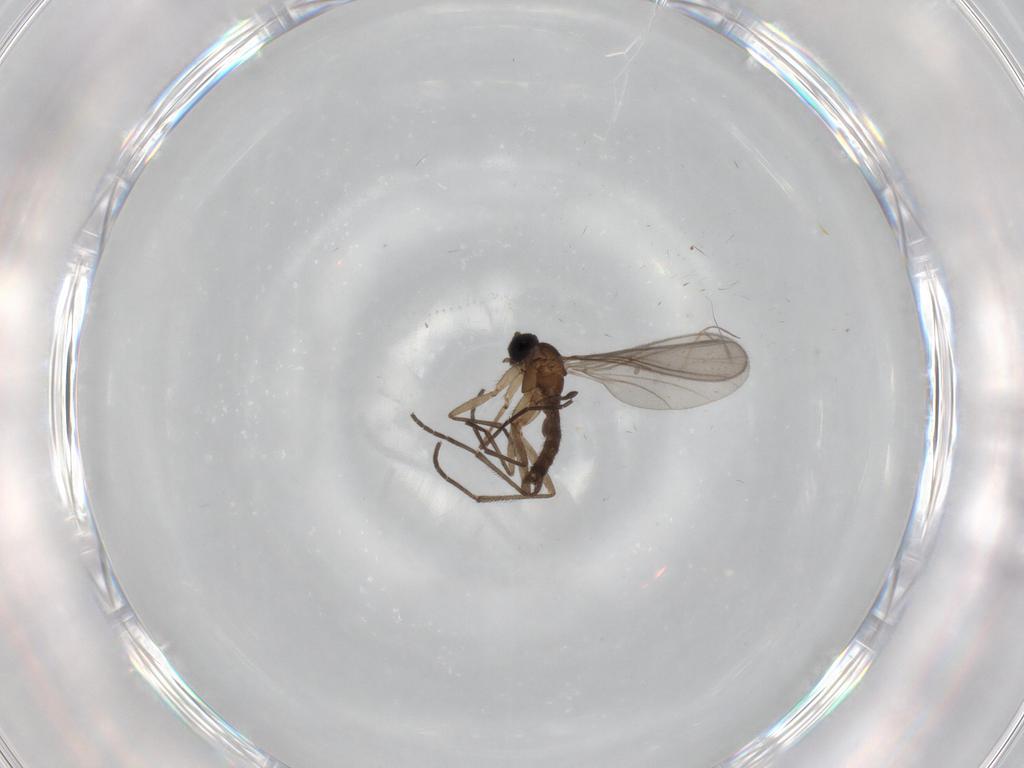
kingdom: Animalia
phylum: Arthropoda
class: Insecta
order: Diptera
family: Sciaridae
